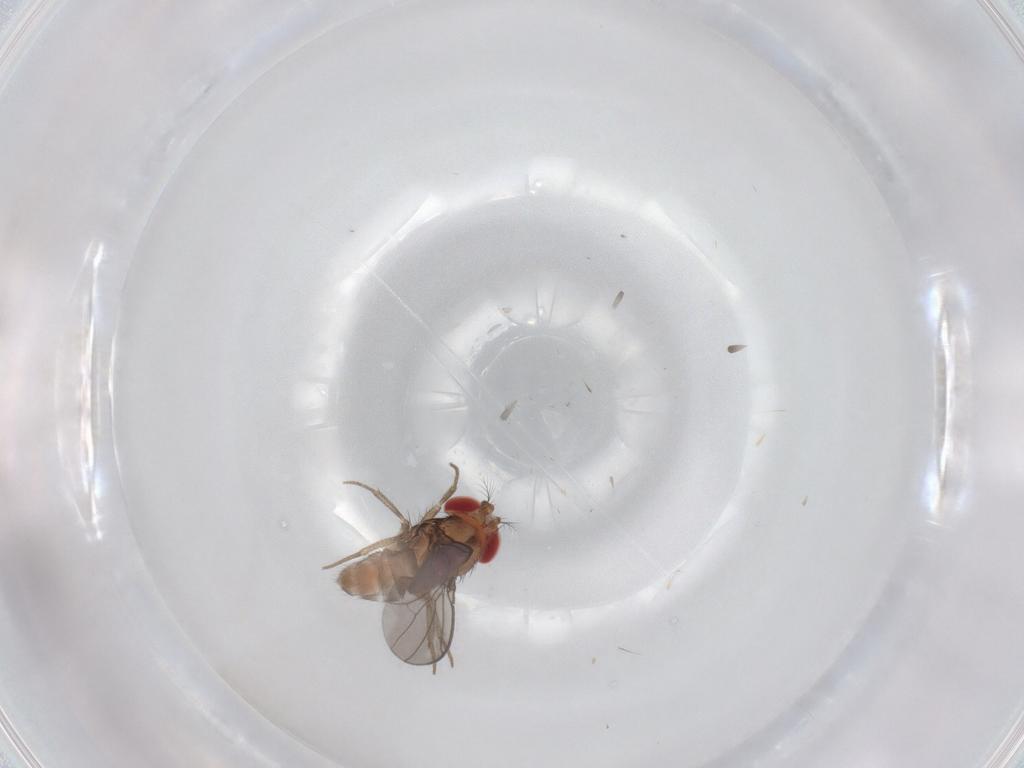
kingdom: Animalia
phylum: Arthropoda
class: Insecta
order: Diptera
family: Drosophilidae
